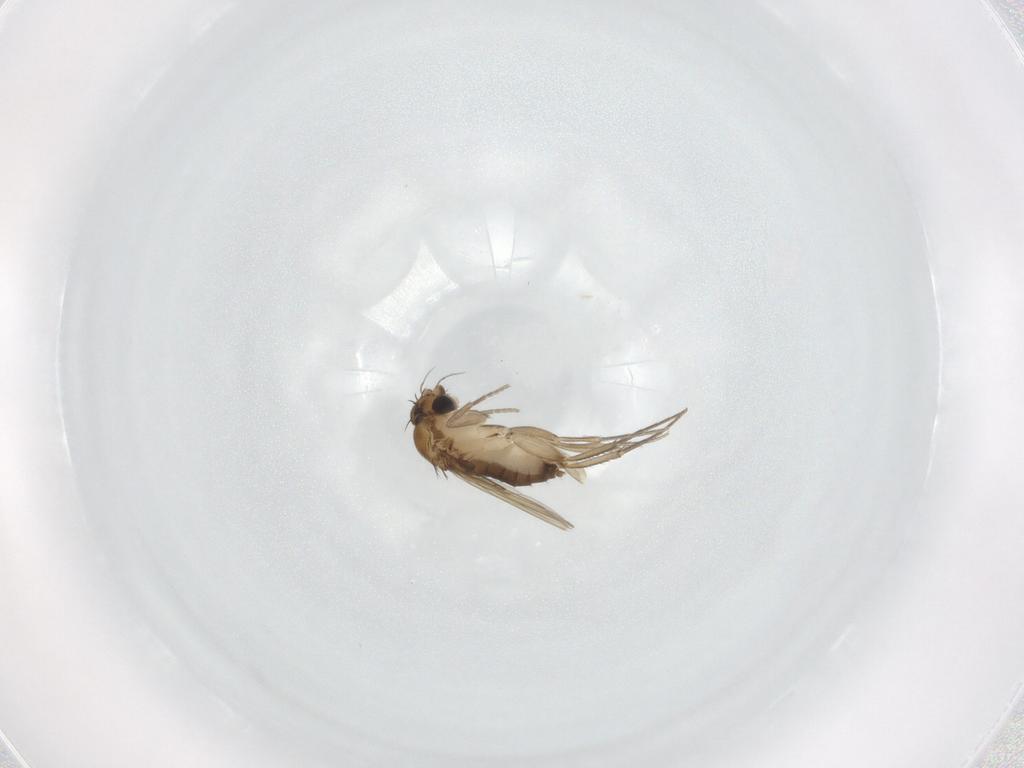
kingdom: Animalia
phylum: Arthropoda
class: Insecta
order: Diptera
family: Phoridae
